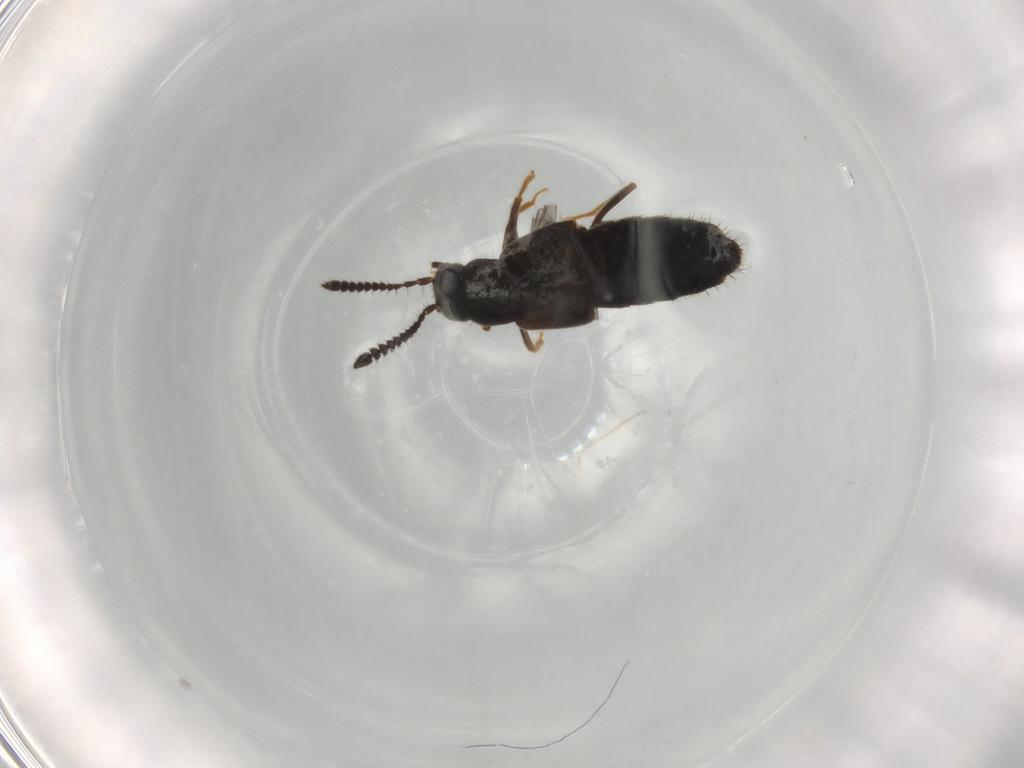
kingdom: Animalia
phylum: Arthropoda
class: Insecta
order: Coleoptera
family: Staphylinidae
